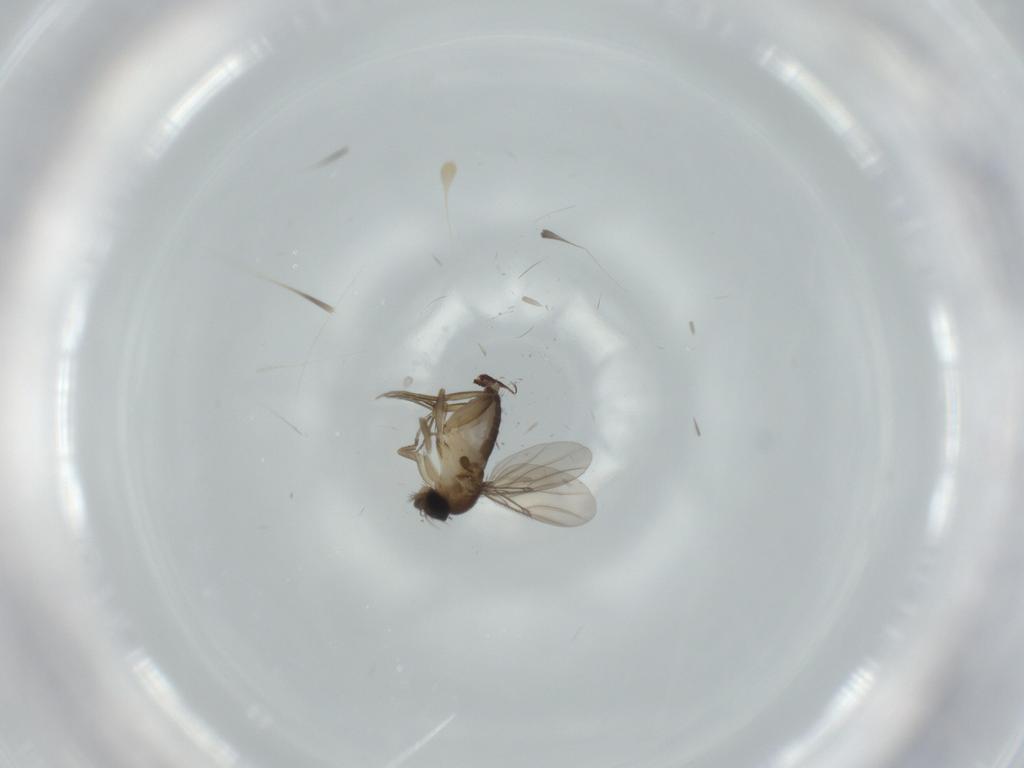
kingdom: Animalia
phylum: Arthropoda
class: Insecta
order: Diptera
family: Phoridae
